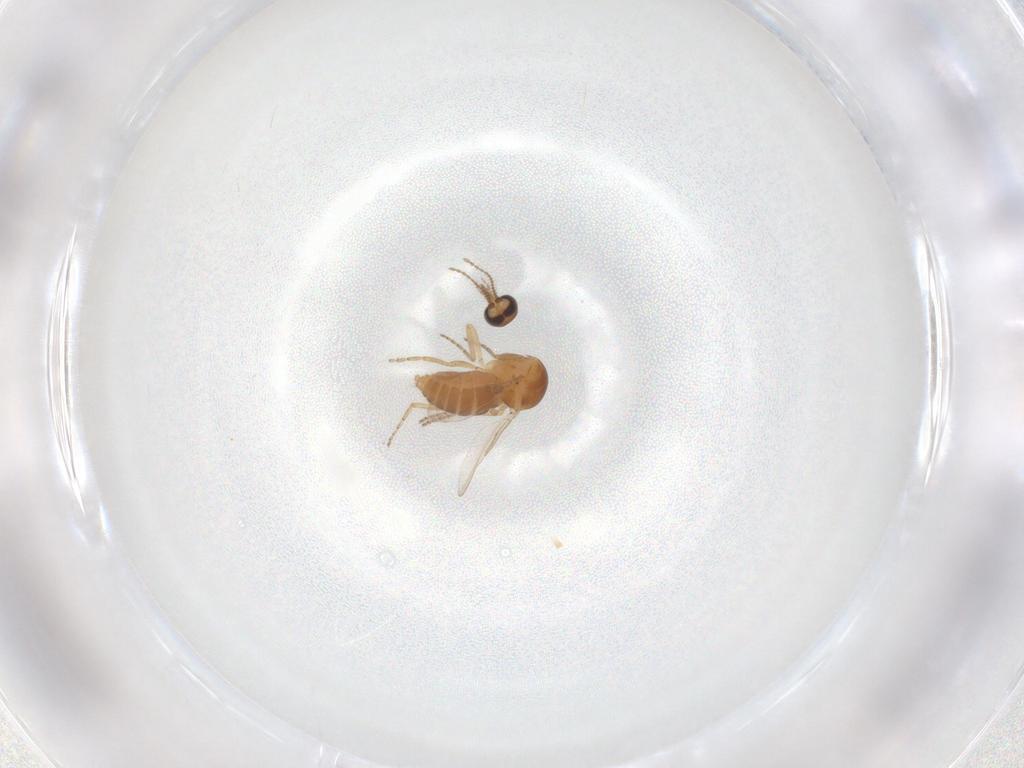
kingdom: Animalia
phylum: Arthropoda
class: Insecta
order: Diptera
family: Ceratopogonidae
